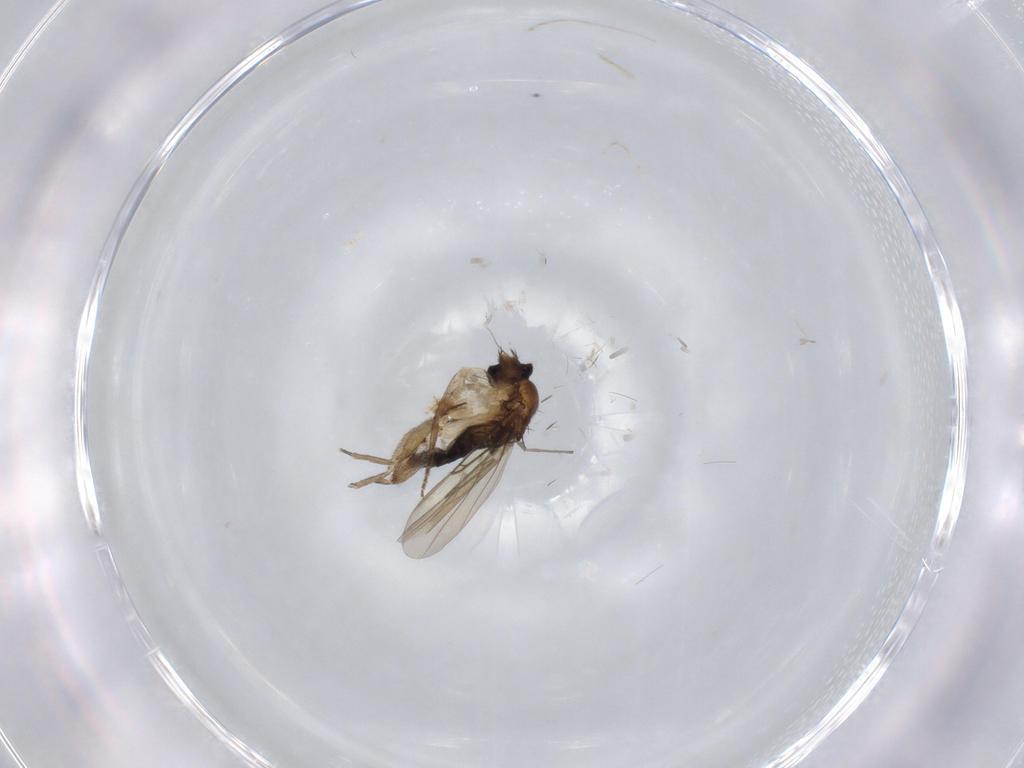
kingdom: Animalia
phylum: Arthropoda
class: Insecta
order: Diptera
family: Phoridae
